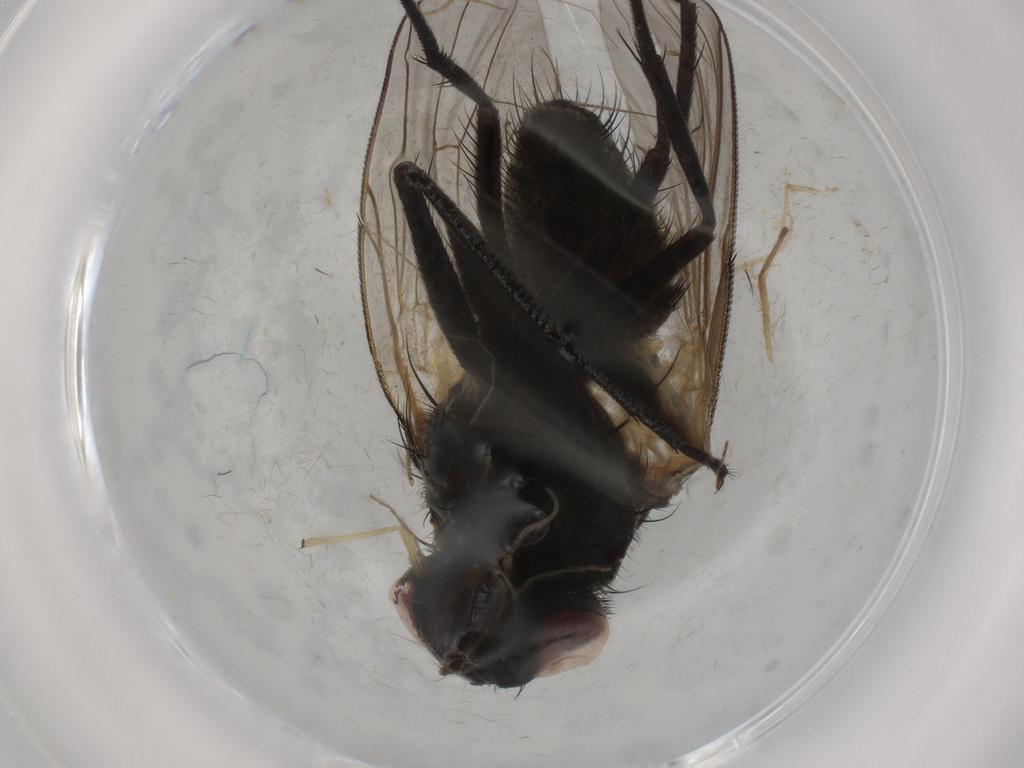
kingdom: Animalia
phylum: Arthropoda
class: Insecta
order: Diptera
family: Muscidae
